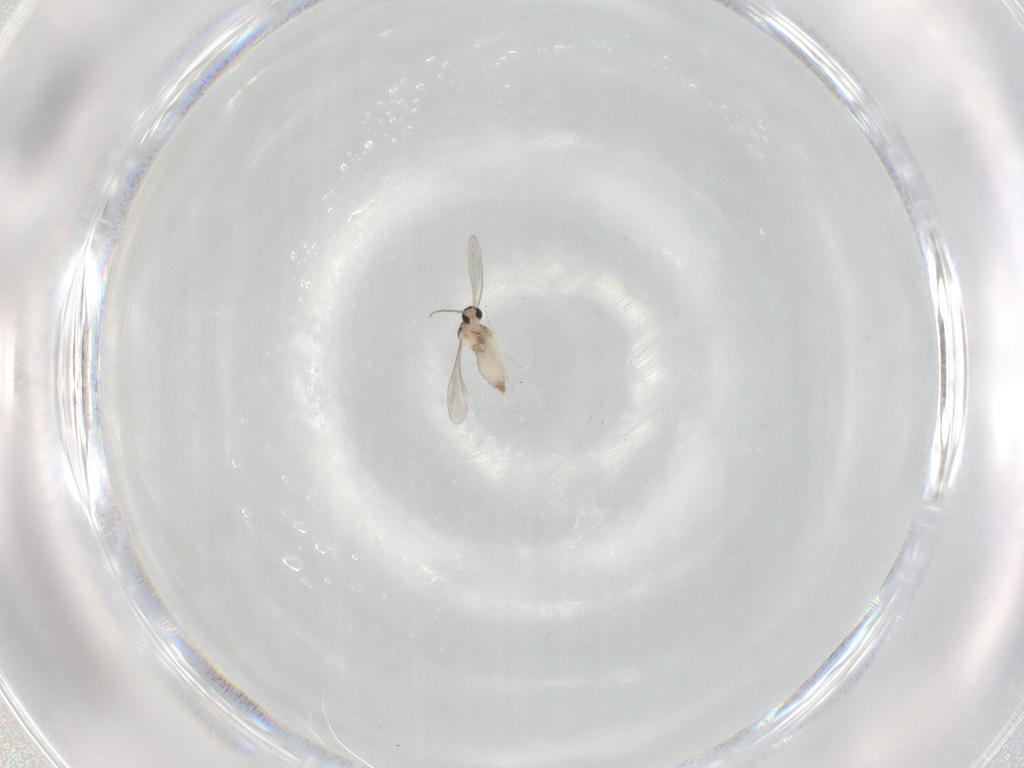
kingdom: Animalia
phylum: Arthropoda
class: Insecta
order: Diptera
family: Cecidomyiidae
